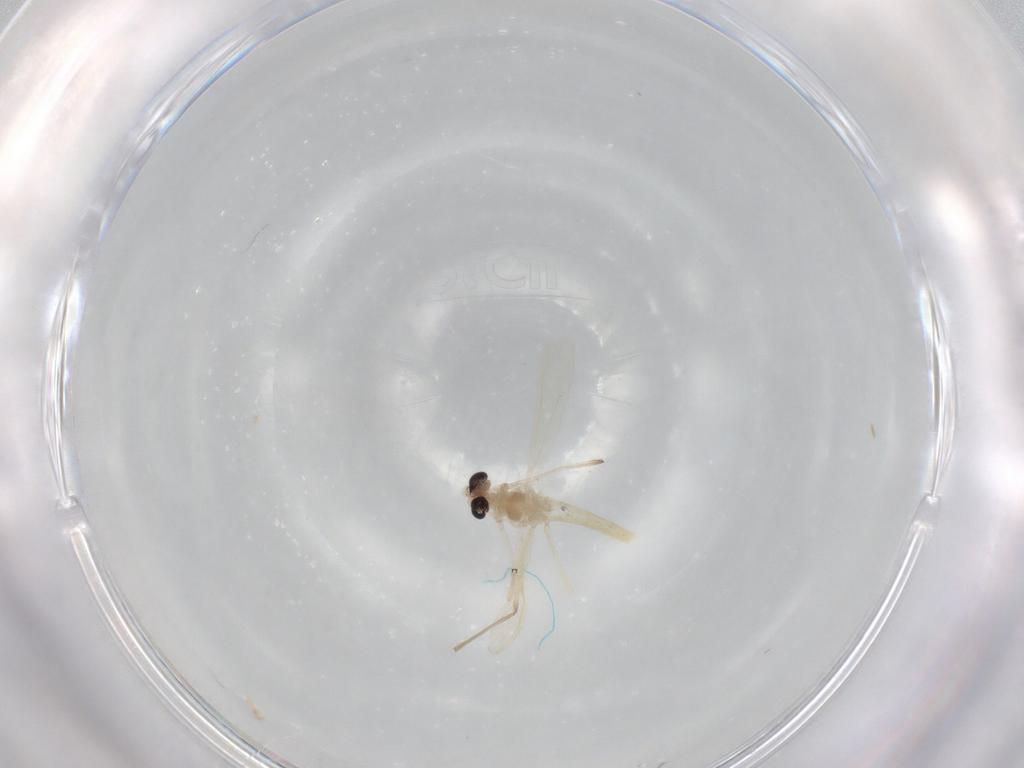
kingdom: Animalia
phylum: Arthropoda
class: Insecta
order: Diptera
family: Chironomidae
